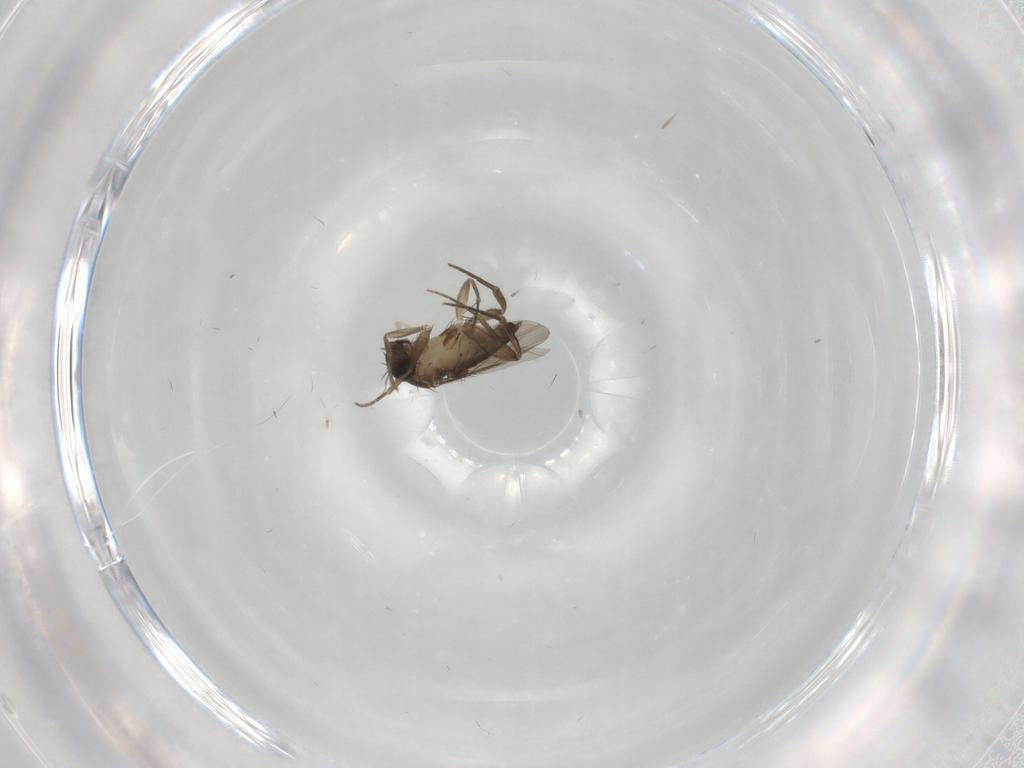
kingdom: Animalia
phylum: Arthropoda
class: Insecta
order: Diptera
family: Phoridae
